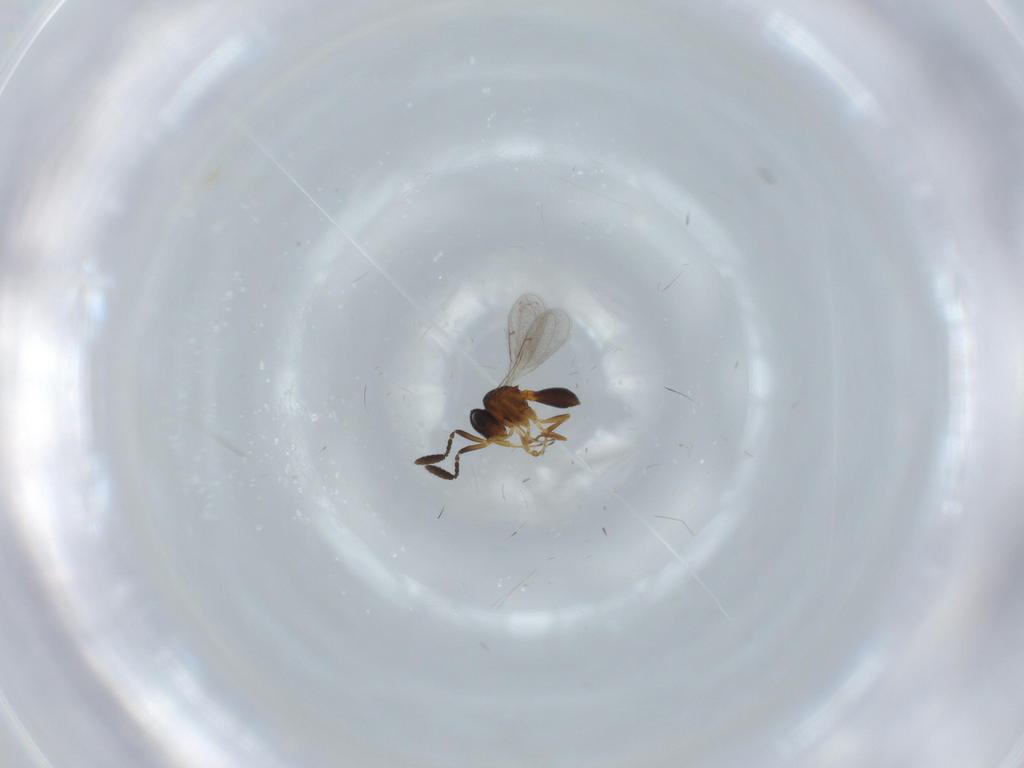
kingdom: Animalia
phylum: Arthropoda
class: Insecta
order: Hymenoptera
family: Scelionidae
